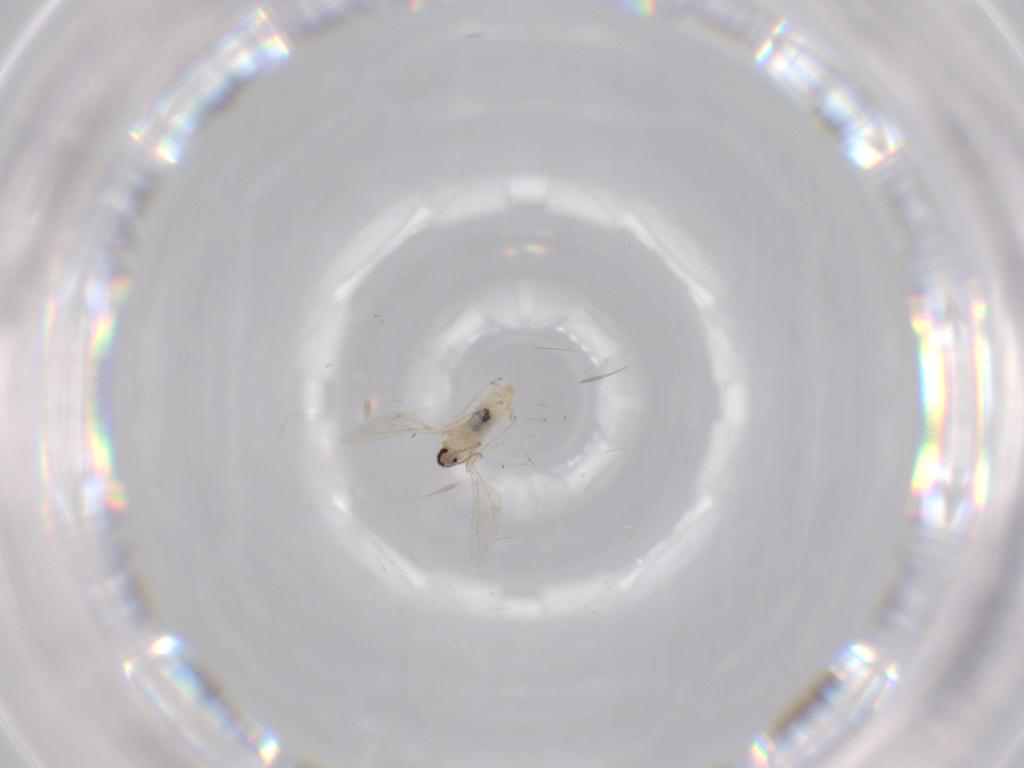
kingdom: Animalia
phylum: Arthropoda
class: Insecta
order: Diptera
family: Cecidomyiidae
